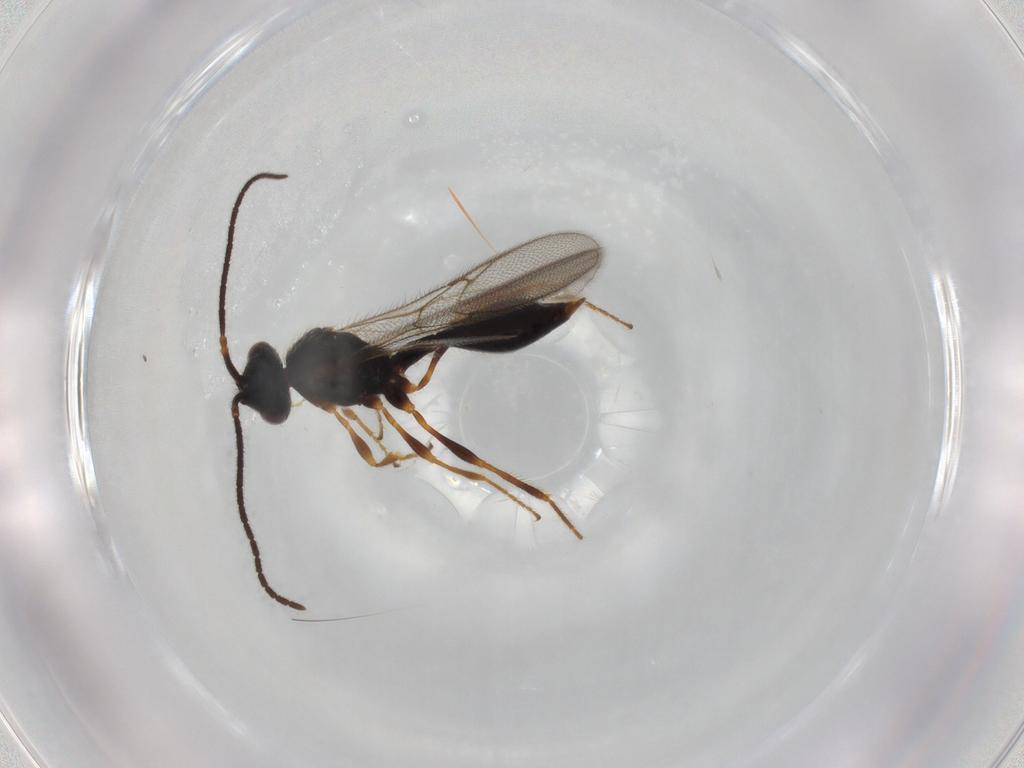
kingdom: Animalia
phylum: Arthropoda
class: Insecta
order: Hymenoptera
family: Diapriidae
